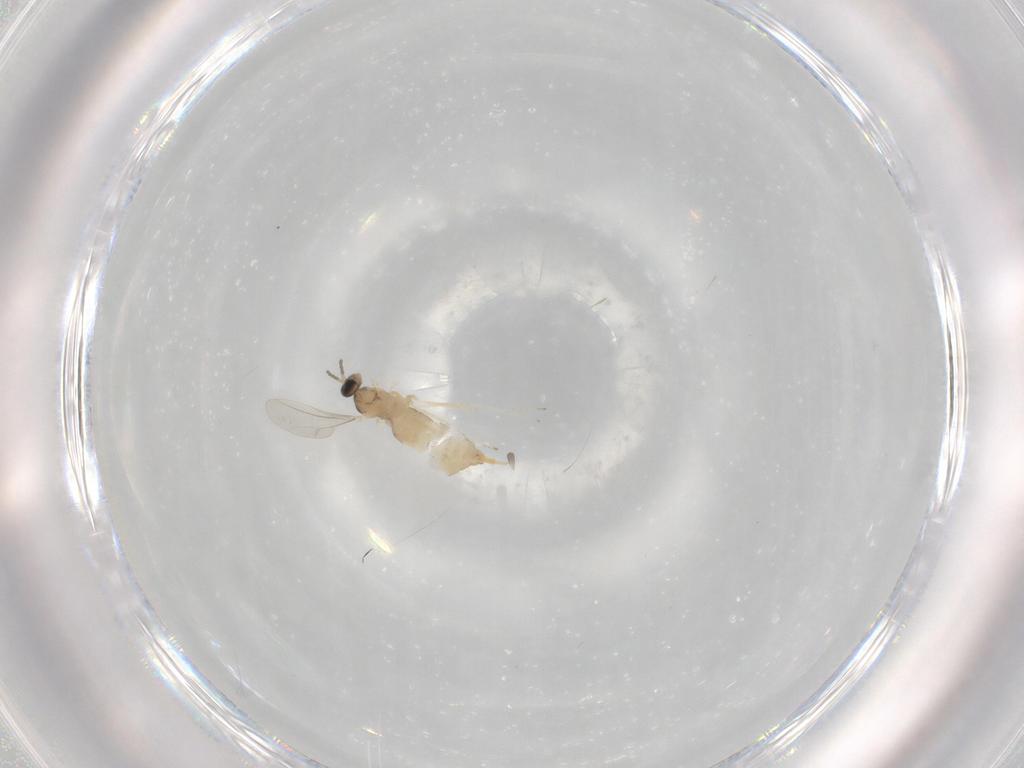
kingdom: Animalia
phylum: Arthropoda
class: Insecta
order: Diptera
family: Cecidomyiidae
